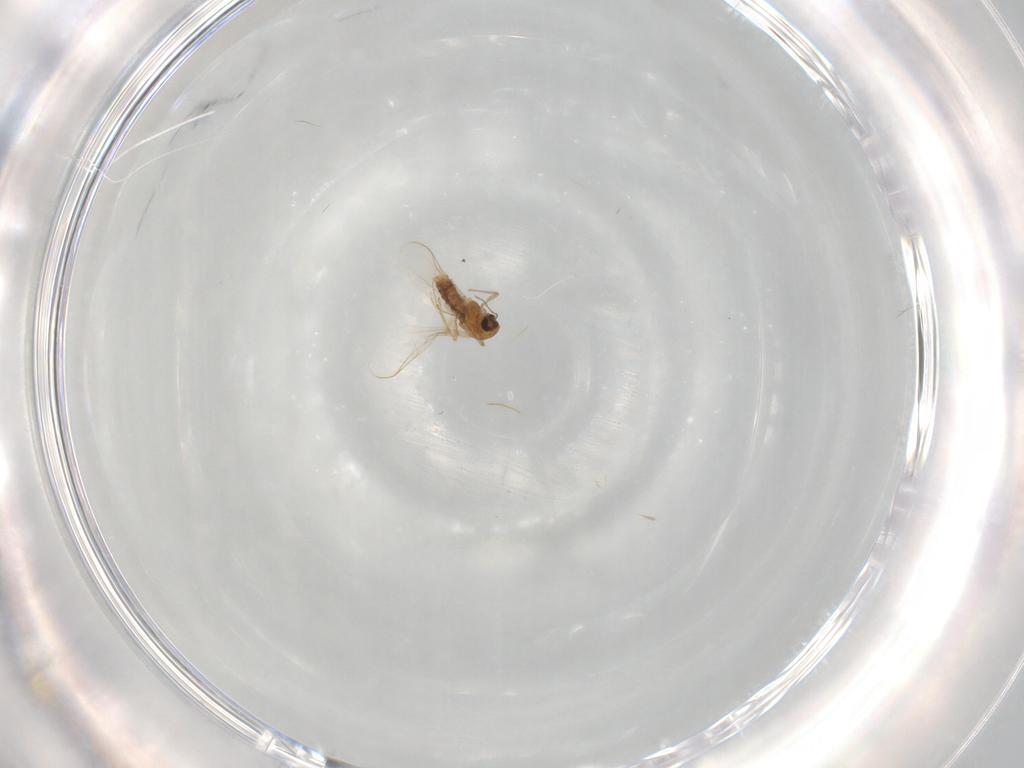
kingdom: Animalia
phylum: Arthropoda
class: Insecta
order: Diptera
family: Chironomidae
